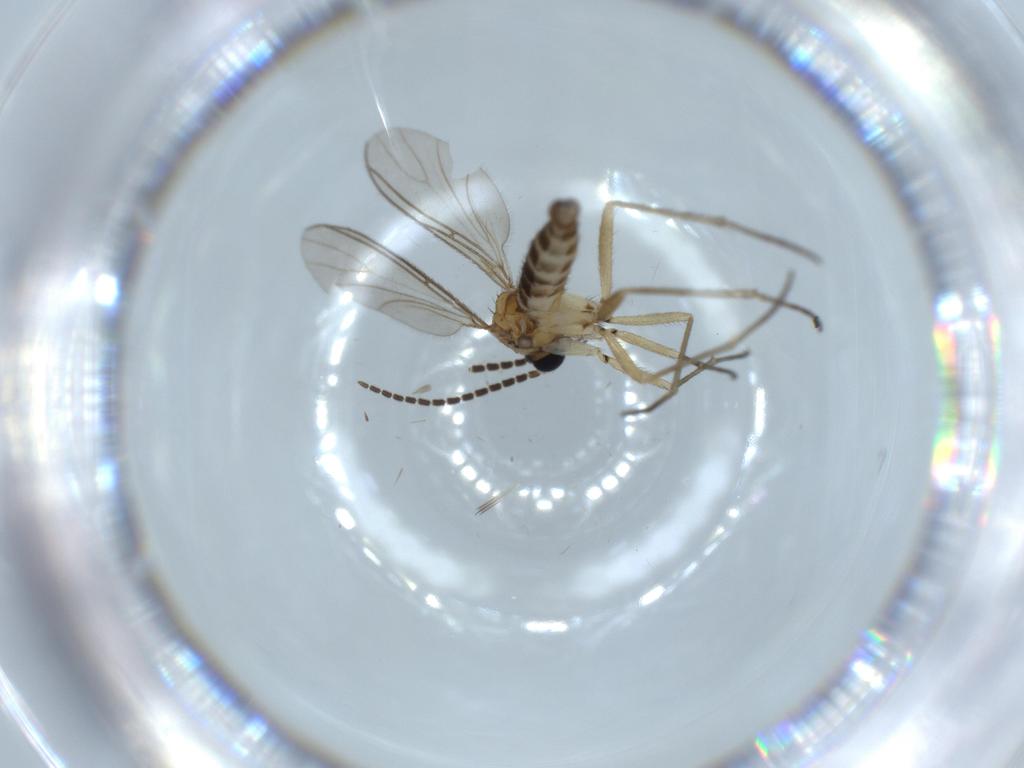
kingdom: Animalia
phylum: Arthropoda
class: Insecta
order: Diptera
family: Sciaridae
